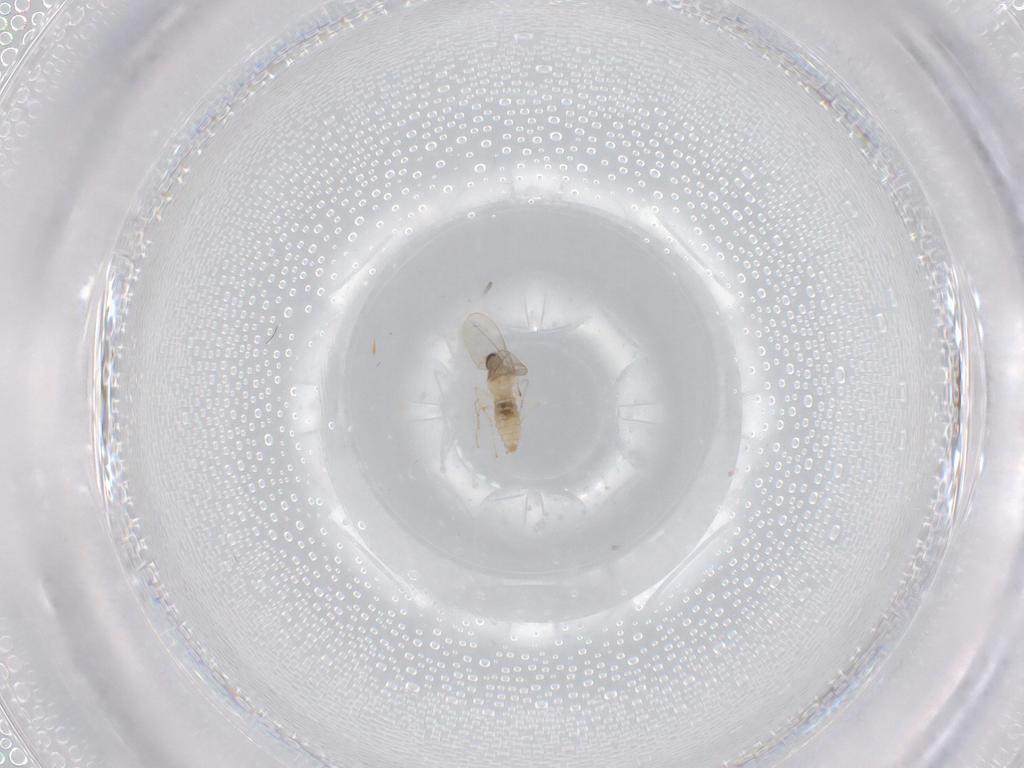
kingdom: Animalia
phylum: Arthropoda
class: Insecta
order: Diptera
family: Cecidomyiidae
